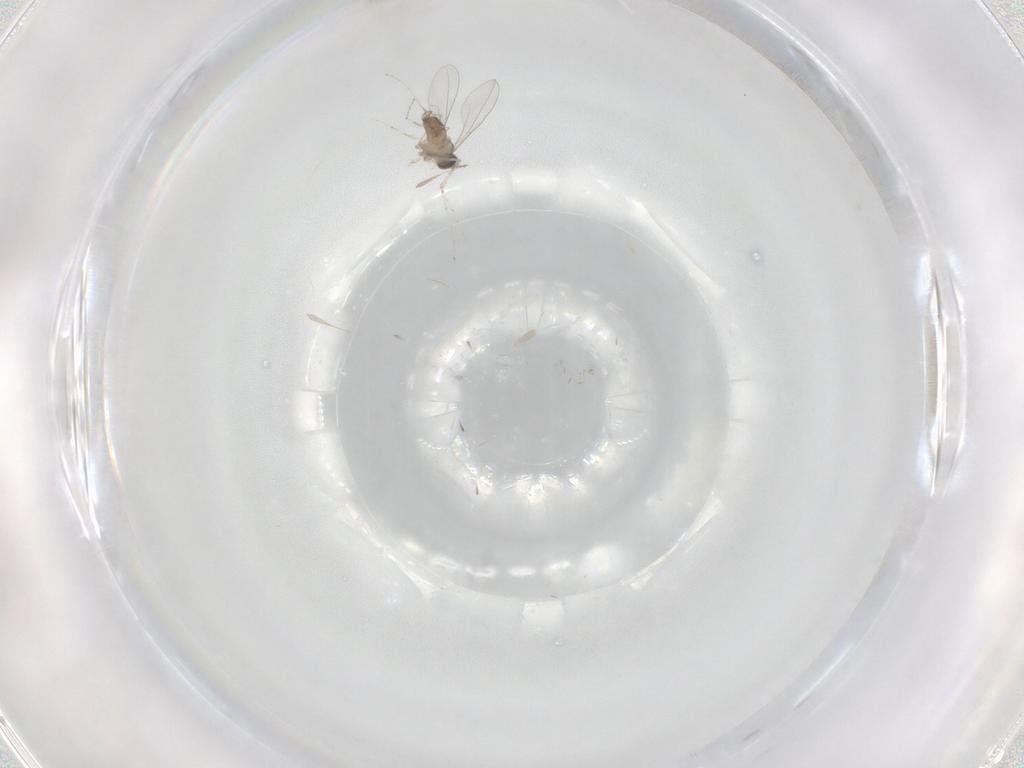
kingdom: Animalia
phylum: Arthropoda
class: Insecta
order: Diptera
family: Cecidomyiidae
